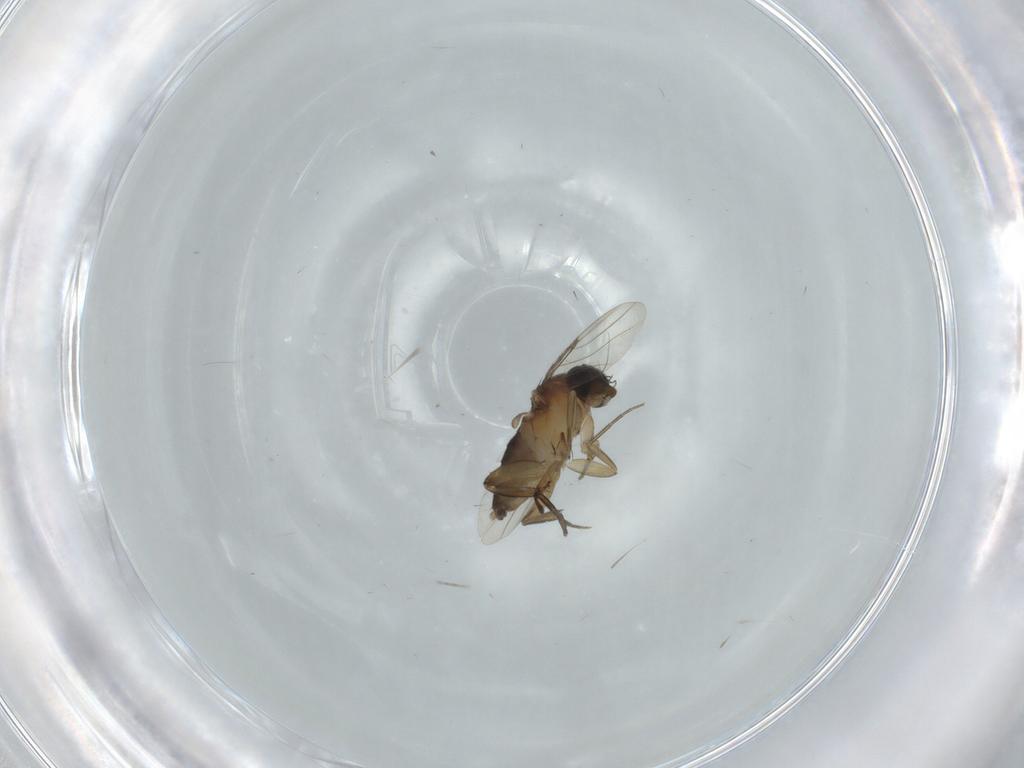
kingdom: Animalia
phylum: Arthropoda
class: Insecta
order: Diptera
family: Phoridae
